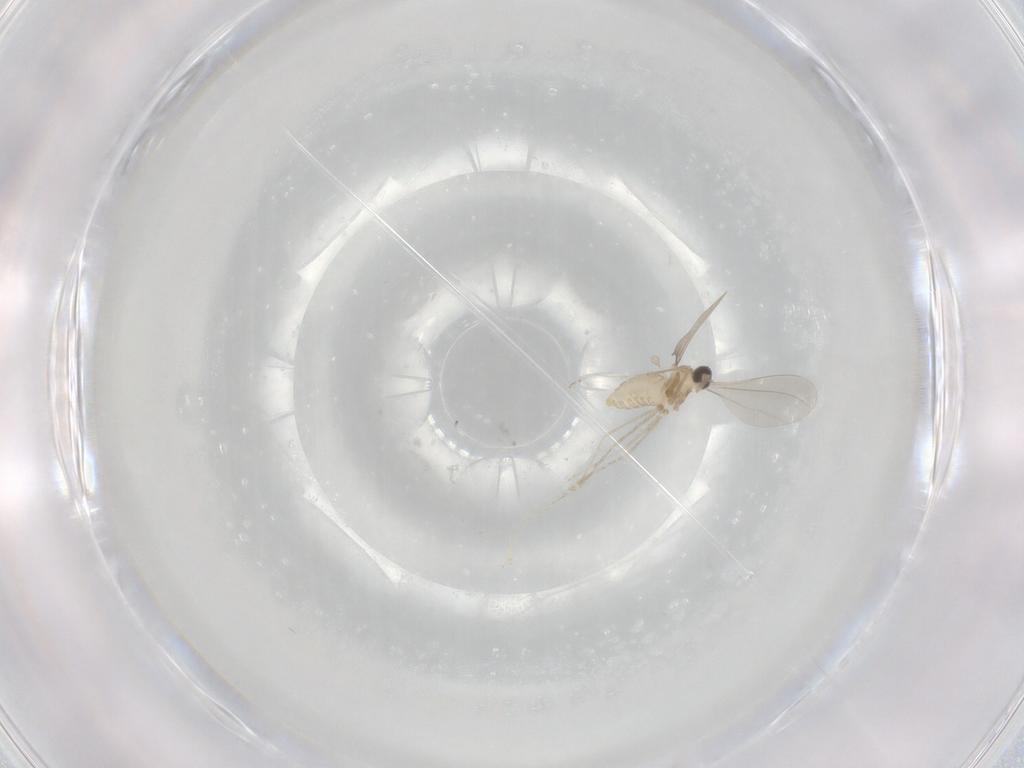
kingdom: Animalia
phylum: Arthropoda
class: Insecta
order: Diptera
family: Cecidomyiidae
